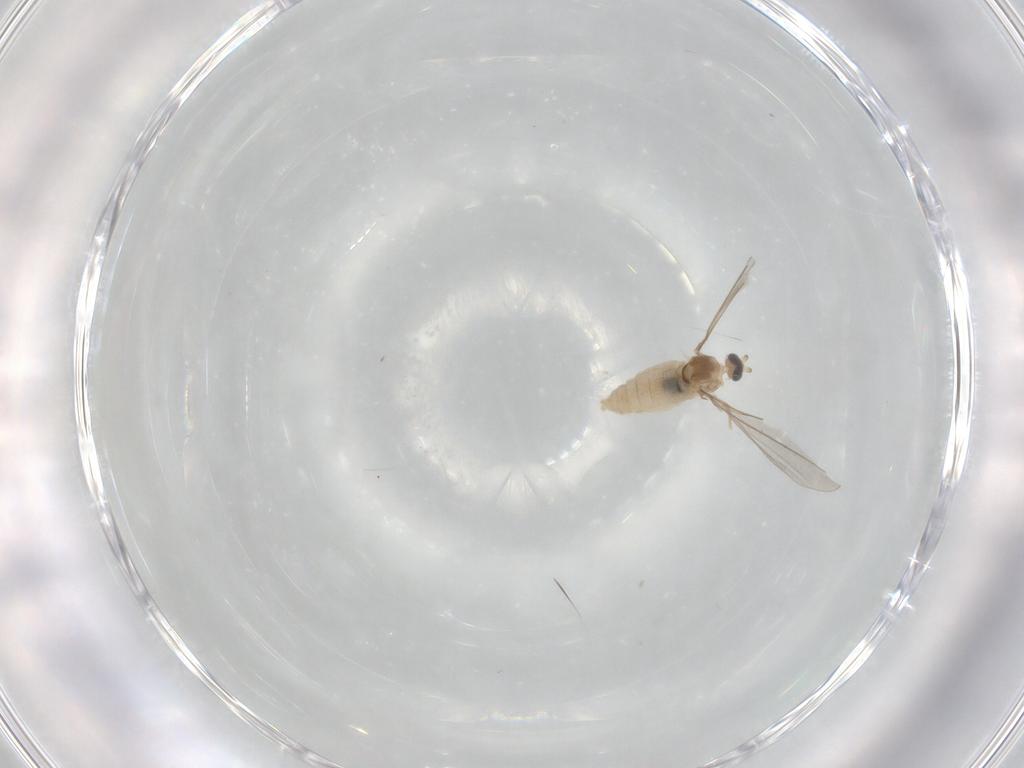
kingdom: Animalia
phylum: Arthropoda
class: Insecta
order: Diptera
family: Cecidomyiidae
